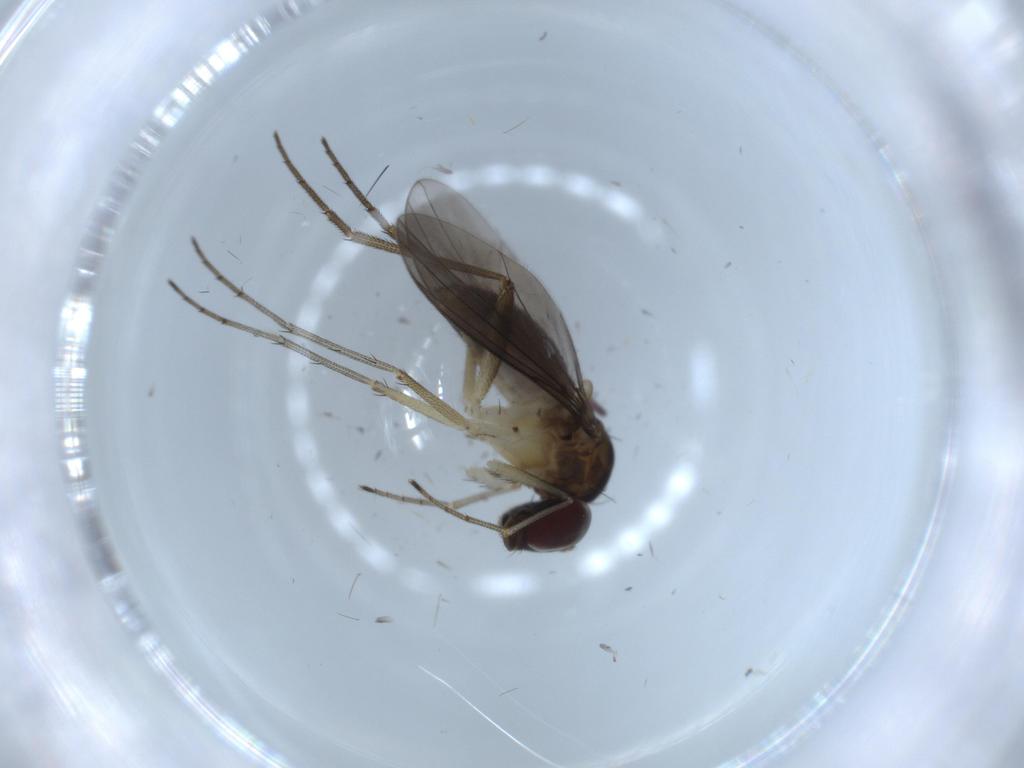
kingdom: Animalia
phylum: Arthropoda
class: Insecta
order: Diptera
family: Dolichopodidae
